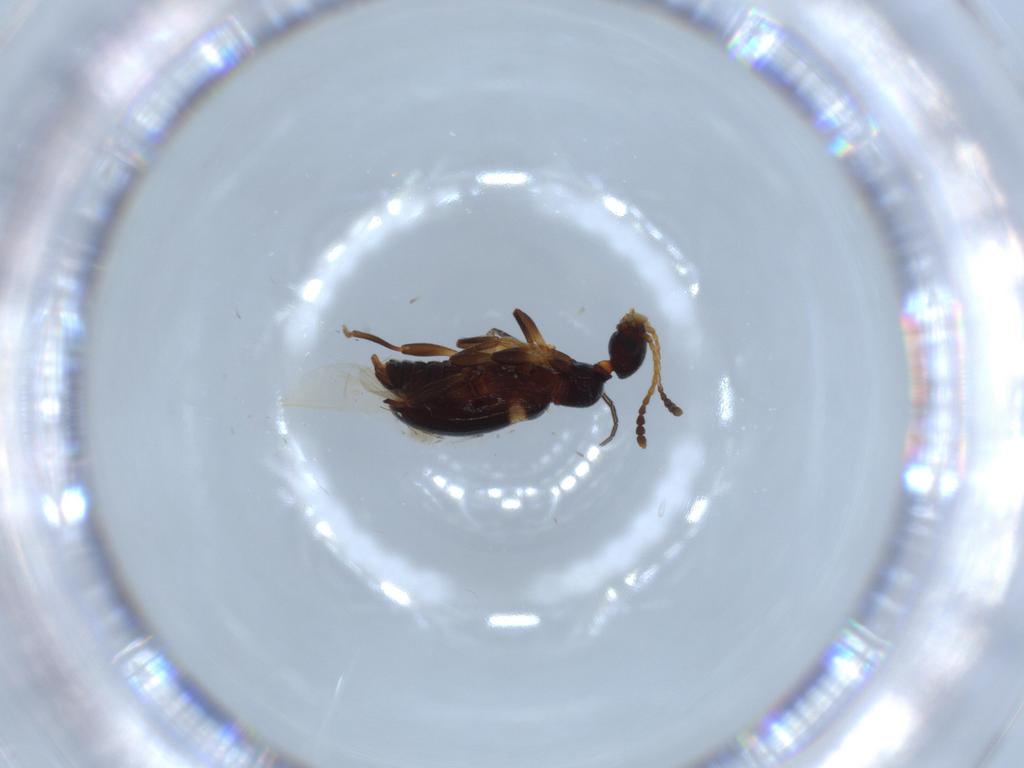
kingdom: Animalia
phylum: Arthropoda
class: Insecta
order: Coleoptera
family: Anthicidae
